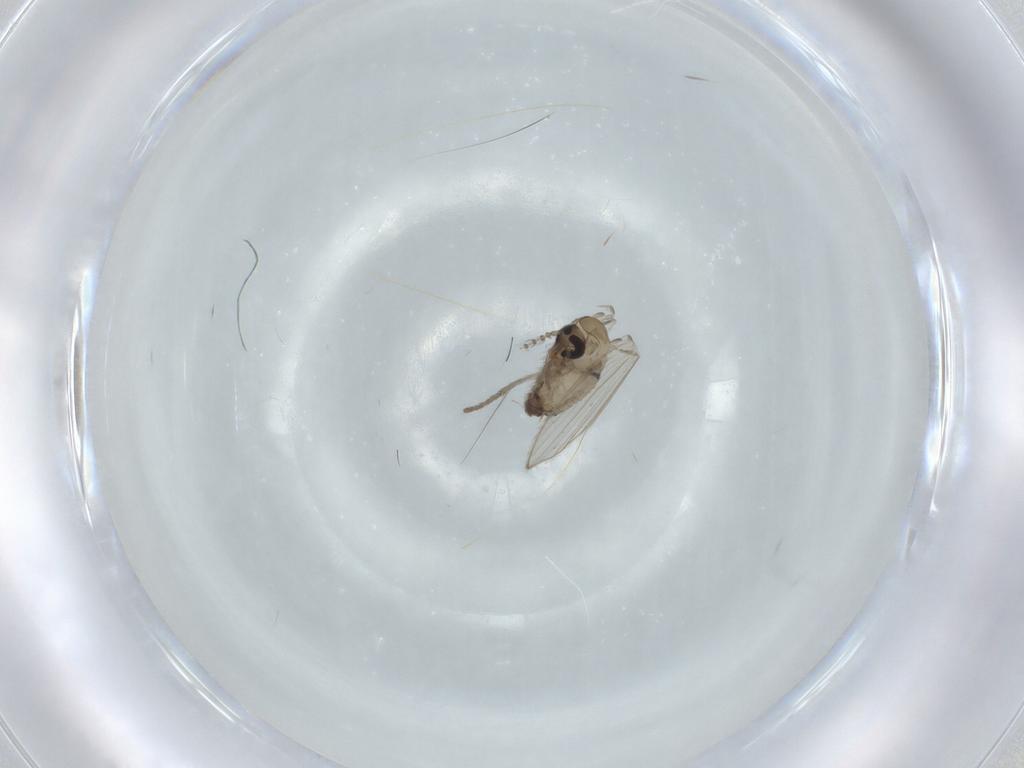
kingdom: Animalia
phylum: Arthropoda
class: Insecta
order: Diptera
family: Psychodidae
